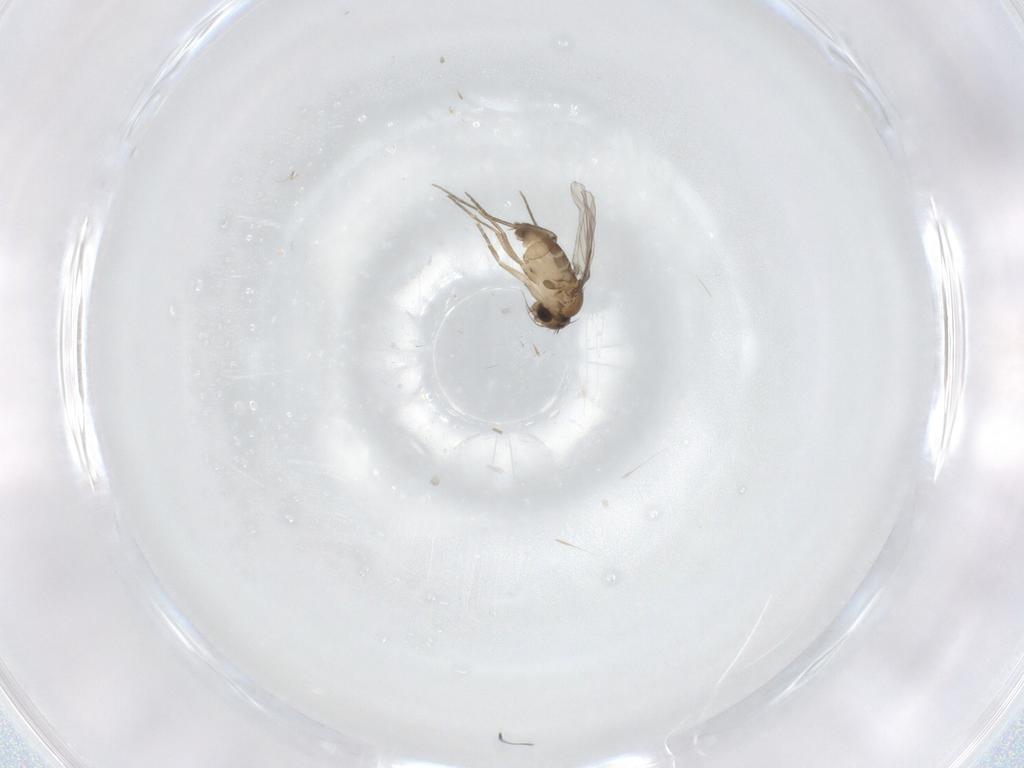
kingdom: Animalia
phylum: Arthropoda
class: Insecta
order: Diptera
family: Phoridae
